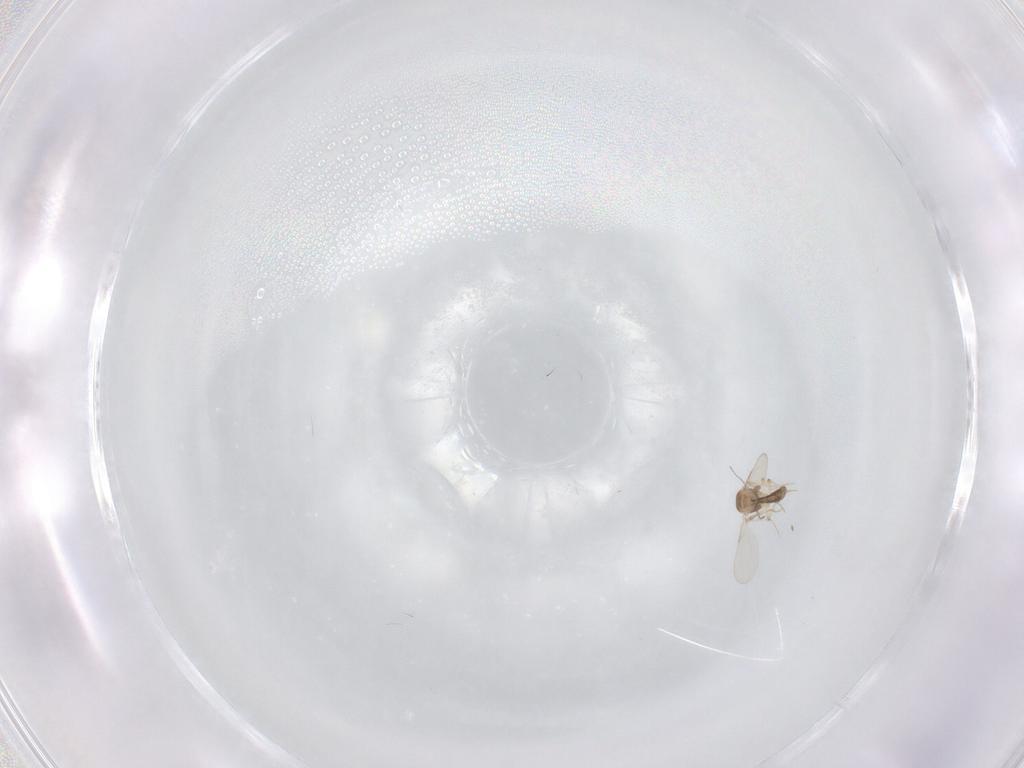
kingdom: Animalia
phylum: Arthropoda
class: Insecta
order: Diptera
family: Ceratopogonidae
